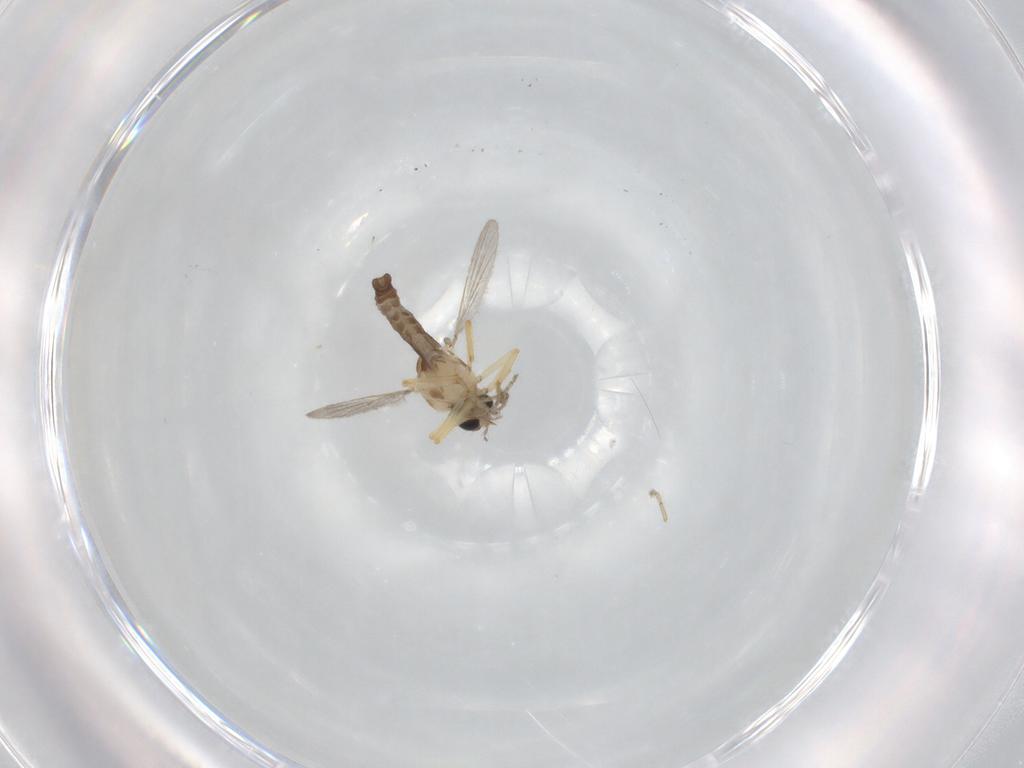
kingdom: Animalia
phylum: Arthropoda
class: Insecta
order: Diptera
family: Ceratopogonidae
